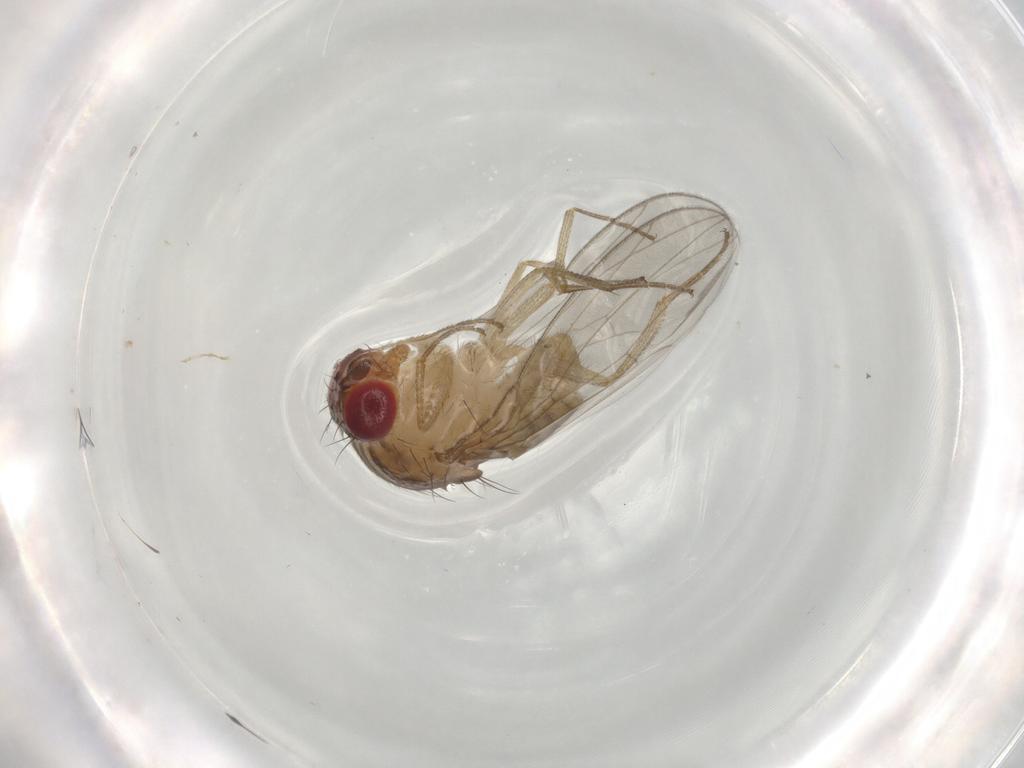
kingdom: Animalia
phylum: Arthropoda
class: Insecta
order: Diptera
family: Drosophilidae
